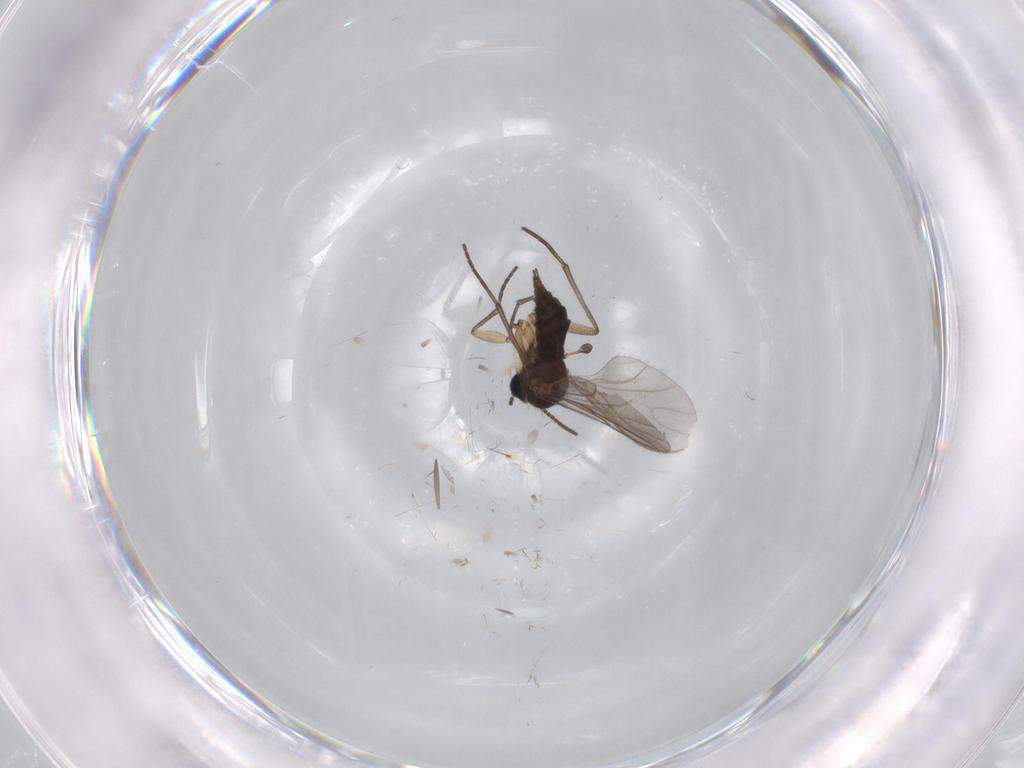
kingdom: Animalia
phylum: Arthropoda
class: Insecta
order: Diptera
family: Sciaridae
